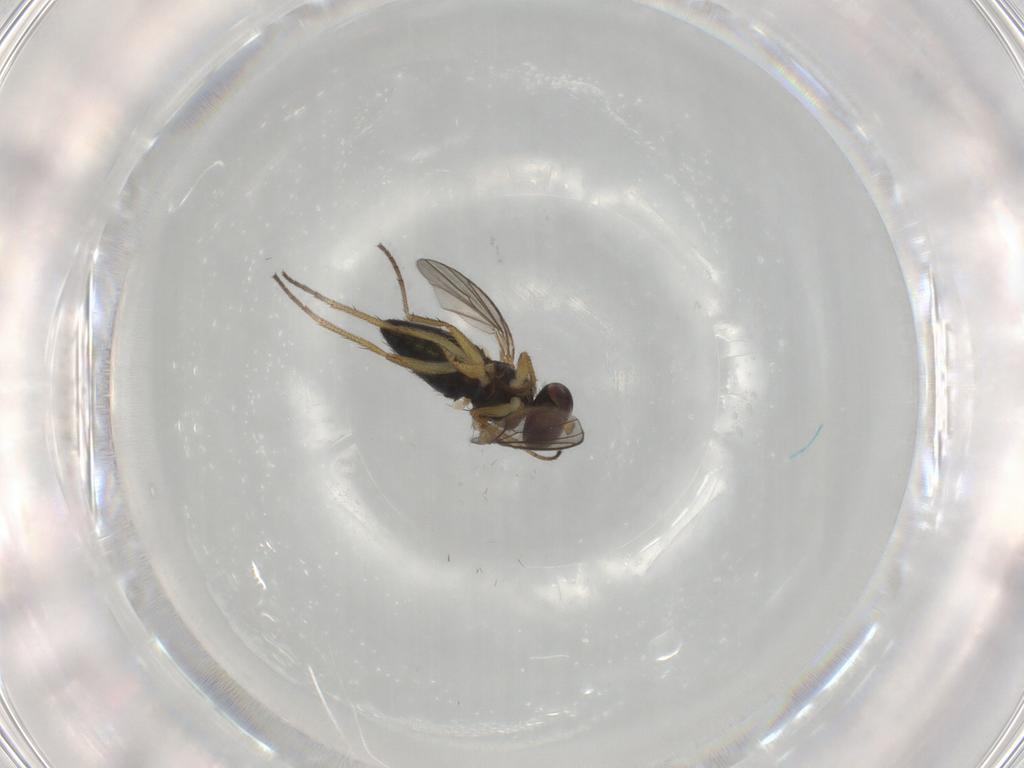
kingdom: Animalia
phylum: Arthropoda
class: Insecta
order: Diptera
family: Dolichopodidae
